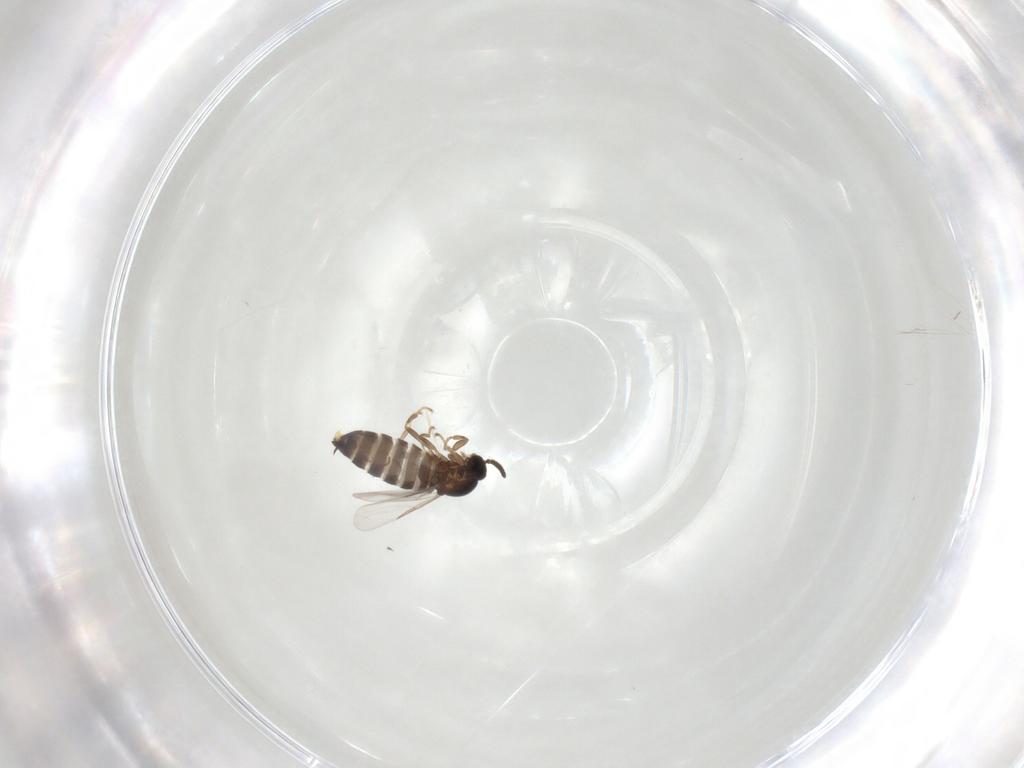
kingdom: Animalia
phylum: Arthropoda
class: Insecta
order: Diptera
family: Scatopsidae
